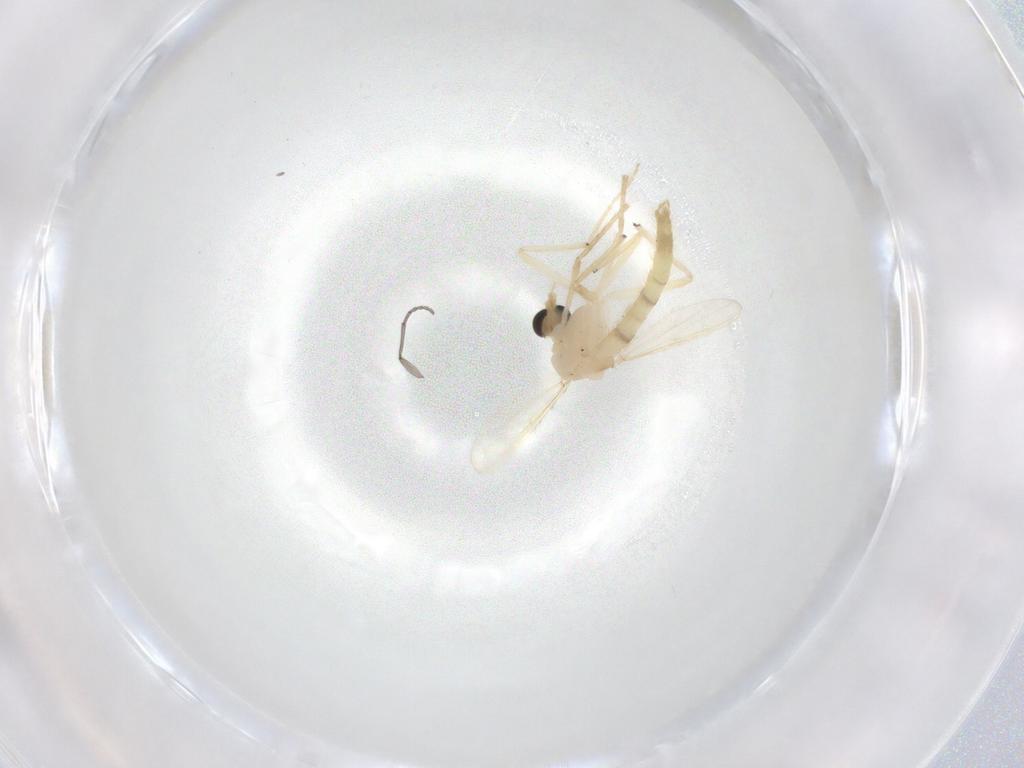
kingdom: Animalia
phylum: Arthropoda
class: Insecta
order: Diptera
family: Chironomidae
